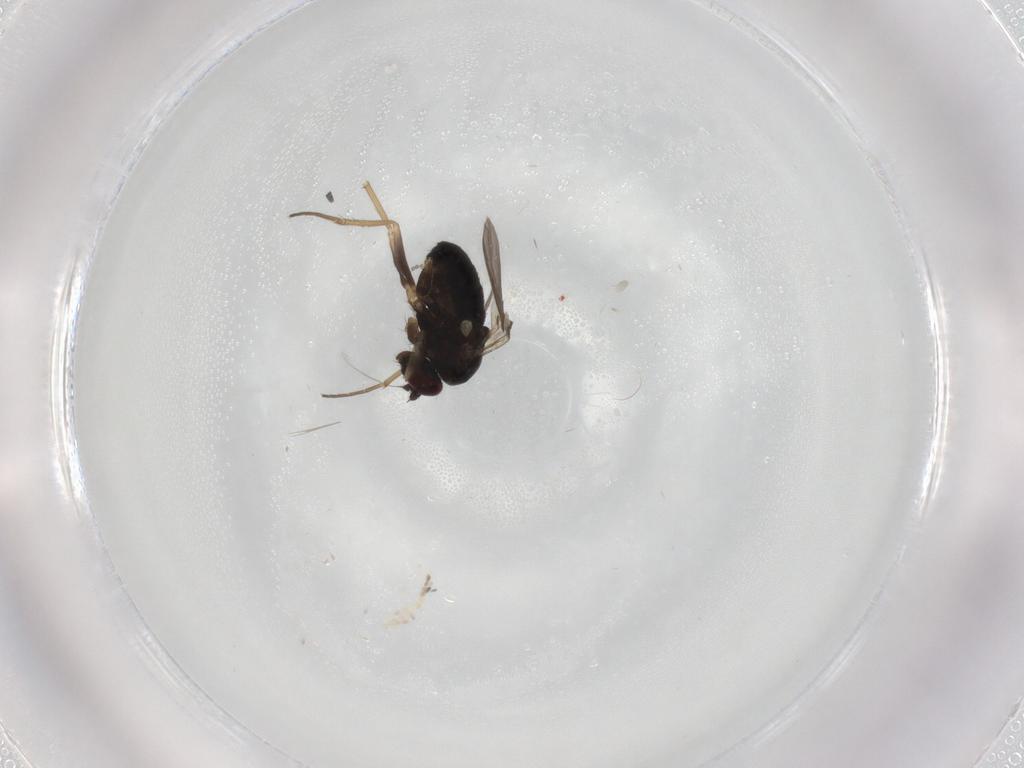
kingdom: Animalia
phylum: Arthropoda
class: Insecta
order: Diptera
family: Dolichopodidae
